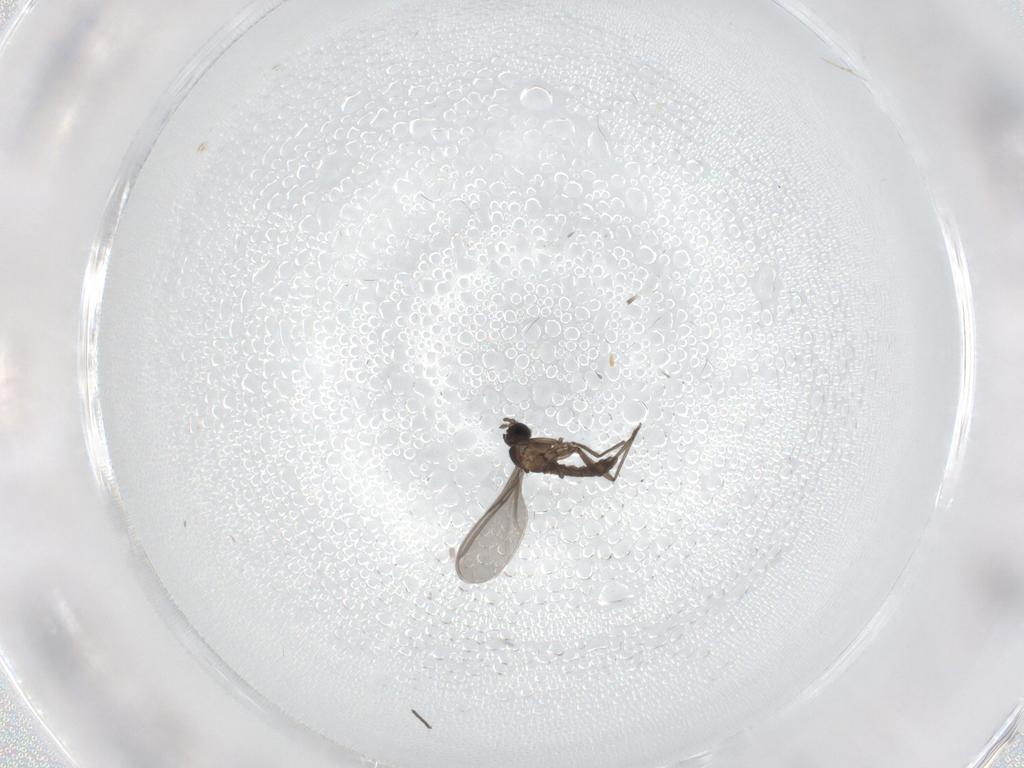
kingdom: Animalia
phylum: Arthropoda
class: Insecta
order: Diptera
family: Sciaridae
